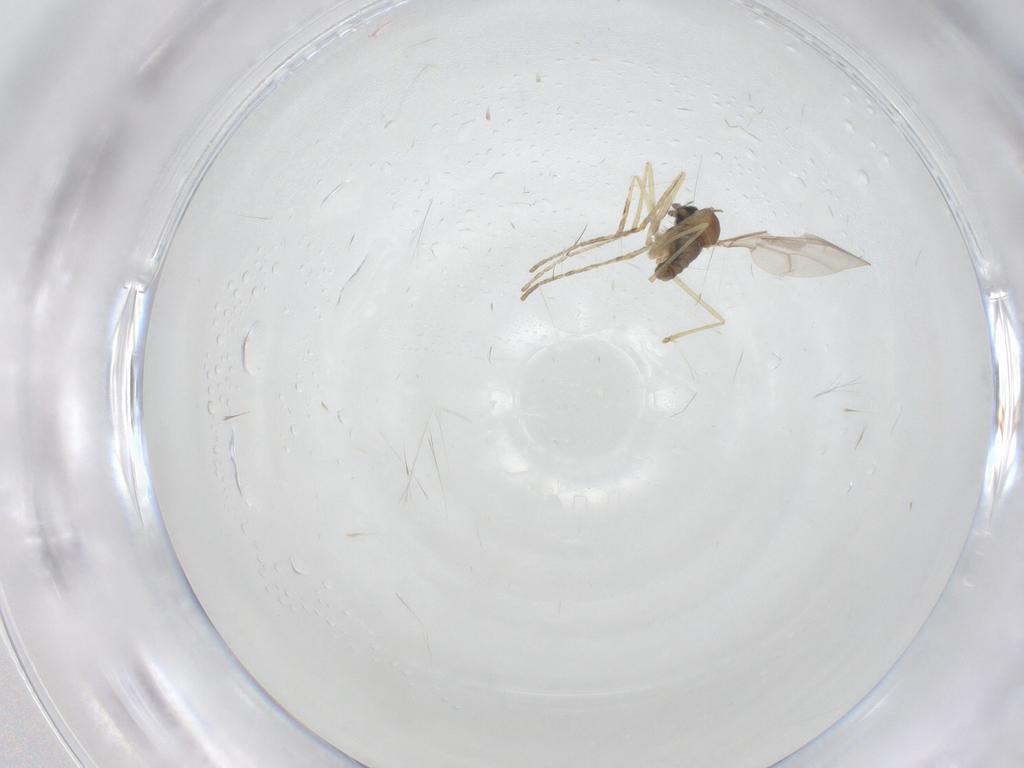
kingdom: Animalia
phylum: Arthropoda
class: Insecta
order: Diptera
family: Cecidomyiidae
